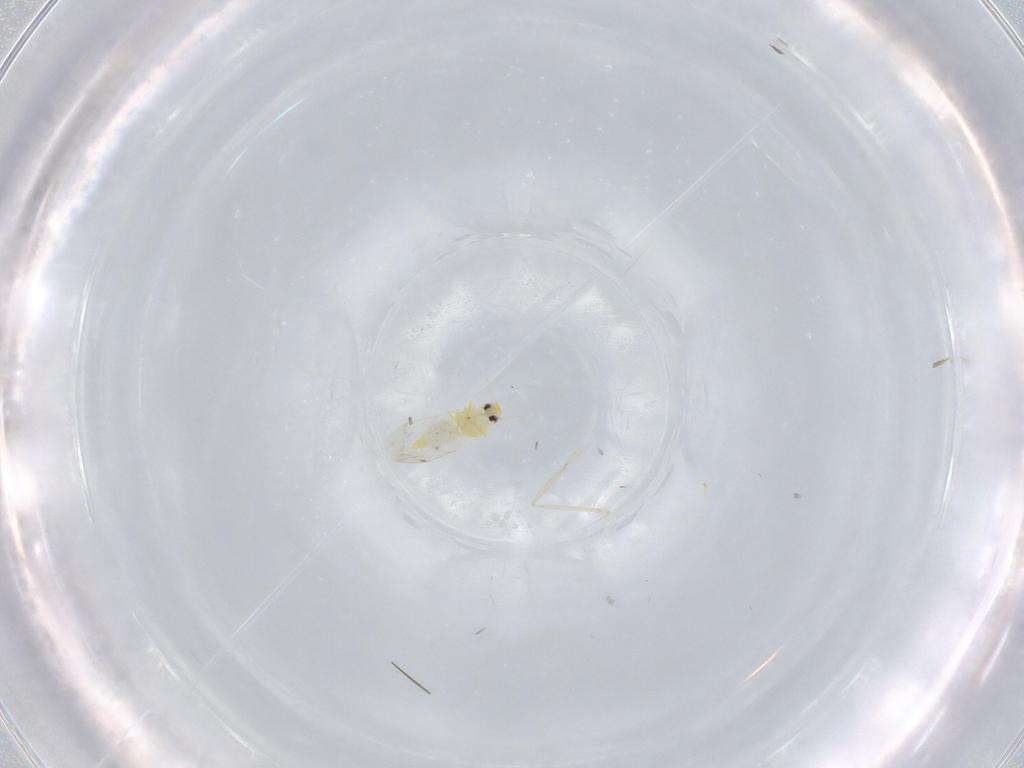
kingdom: Animalia
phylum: Arthropoda
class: Insecta
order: Hemiptera
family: Aleyrodidae
